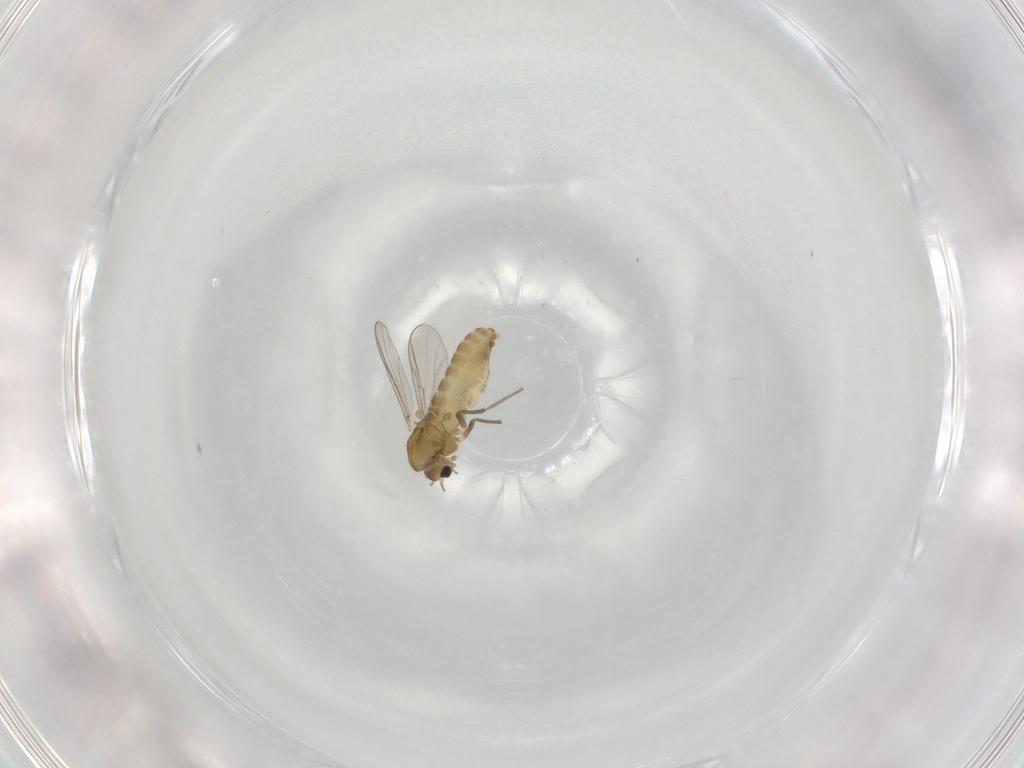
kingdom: Animalia
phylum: Arthropoda
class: Insecta
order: Diptera
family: Chironomidae
